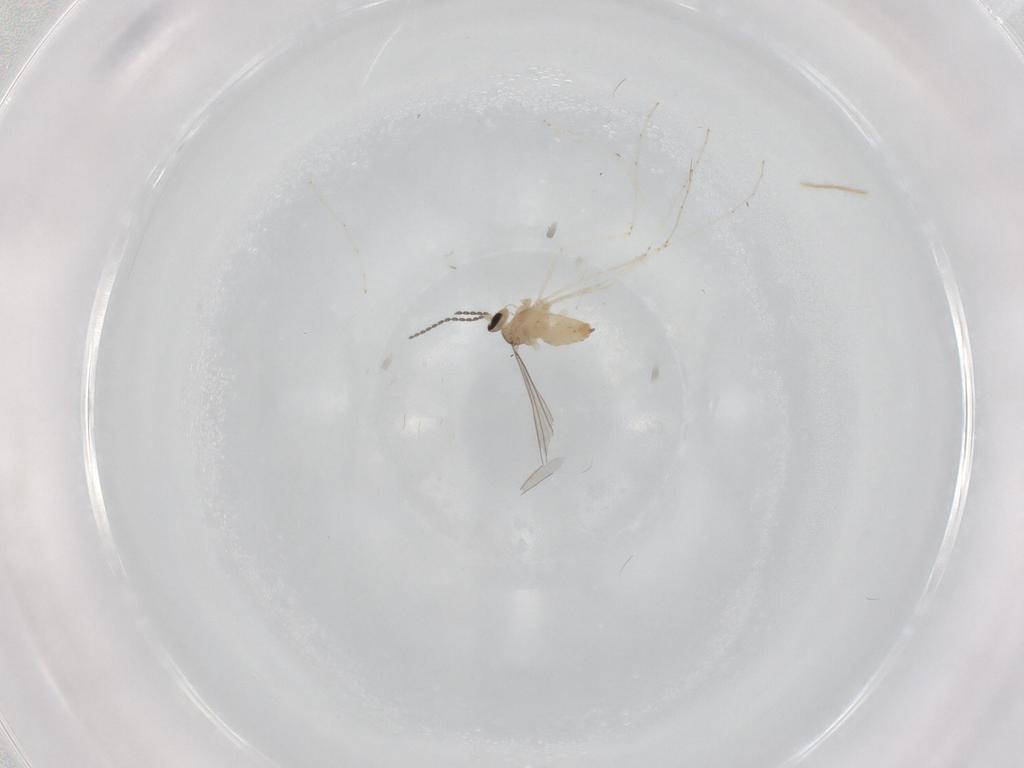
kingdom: Animalia
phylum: Arthropoda
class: Insecta
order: Diptera
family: Cecidomyiidae
